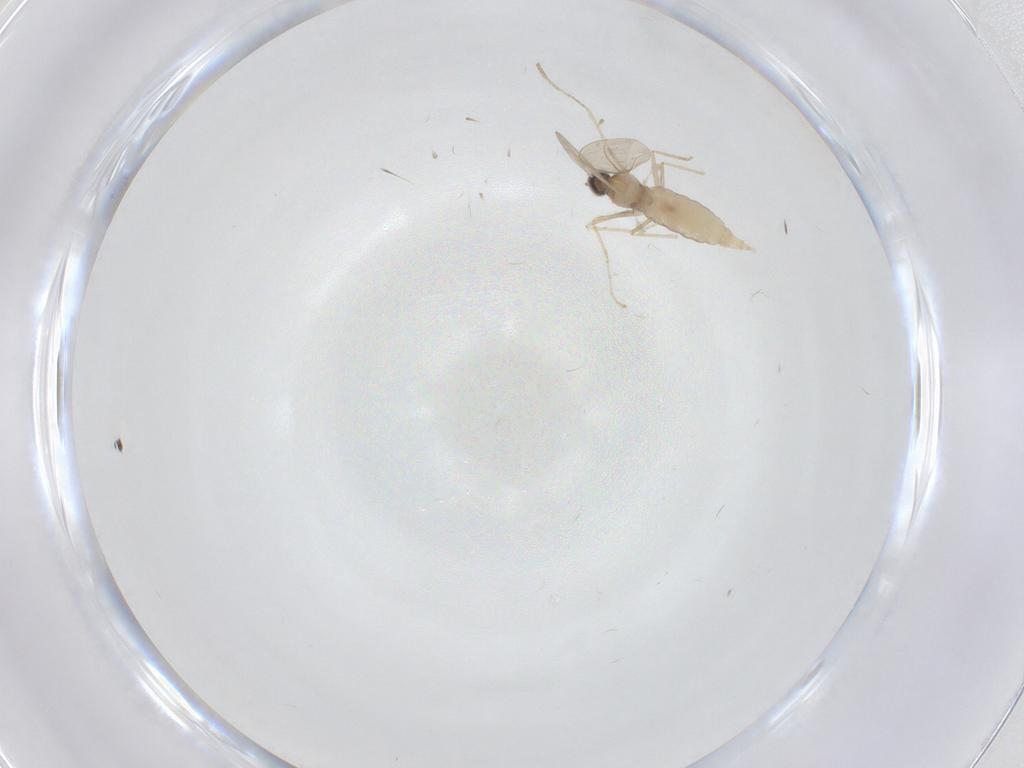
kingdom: Animalia
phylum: Arthropoda
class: Insecta
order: Diptera
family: Cecidomyiidae
